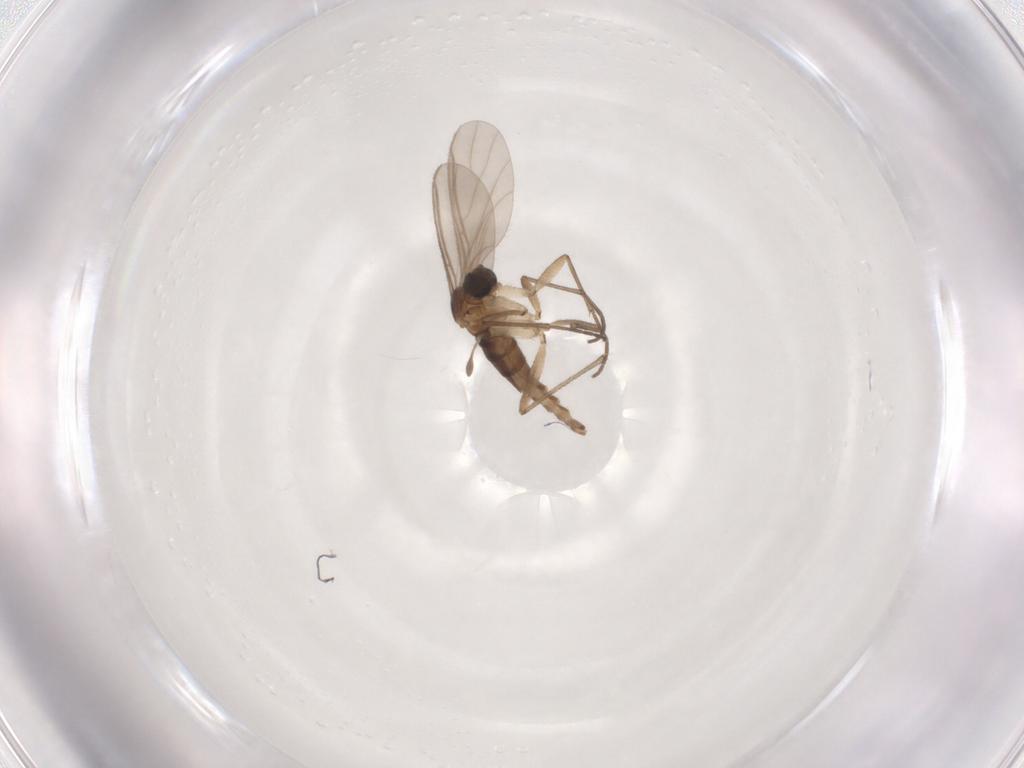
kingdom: Animalia
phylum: Arthropoda
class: Insecta
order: Diptera
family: Sciaridae
